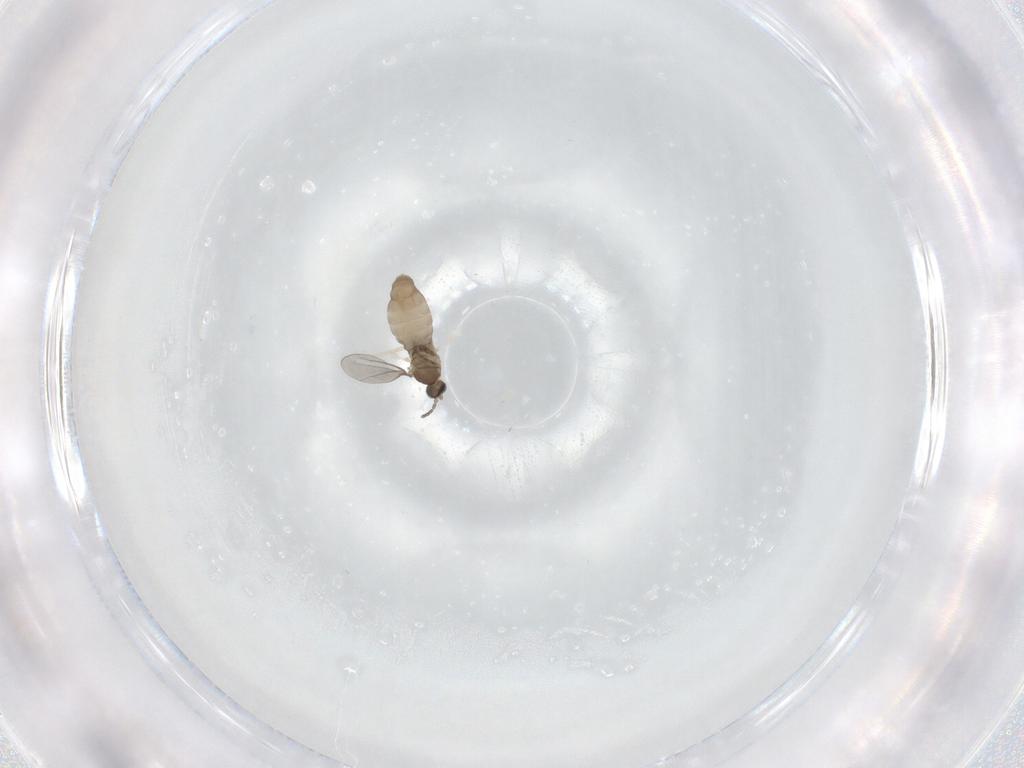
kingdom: Animalia
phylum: Arthropoda
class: Insecta
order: Diptera
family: Cecidomyiidae
